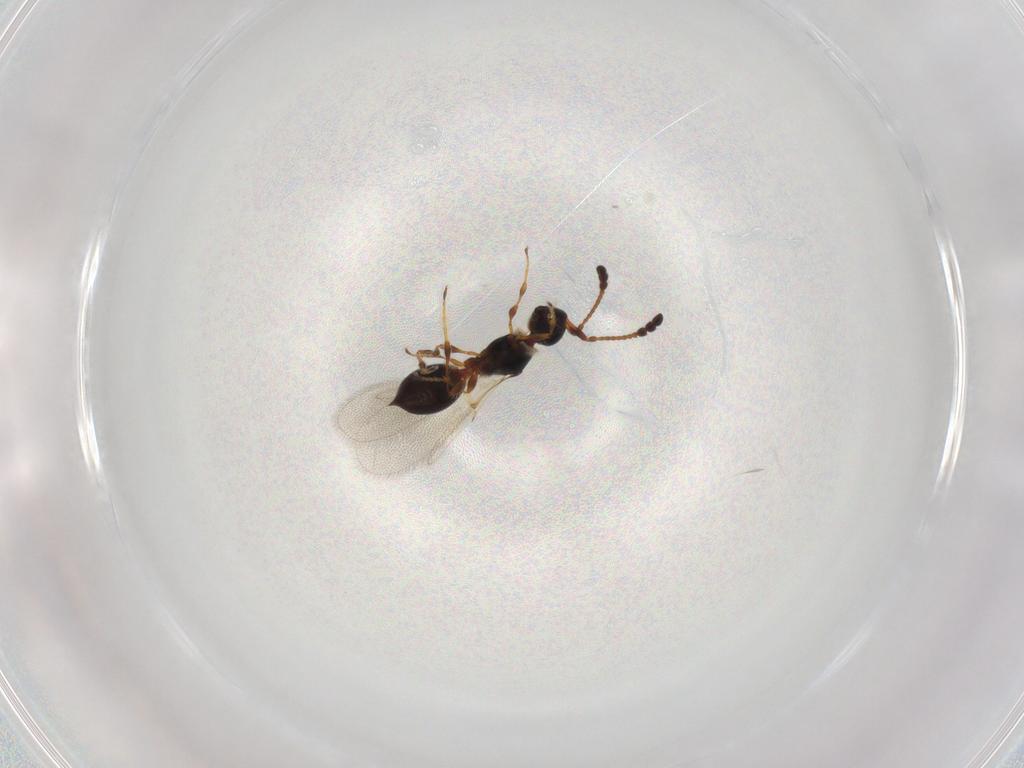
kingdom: Animalia
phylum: Arthropoda
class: Insecta
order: Hymenoptera
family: Diapriidae
